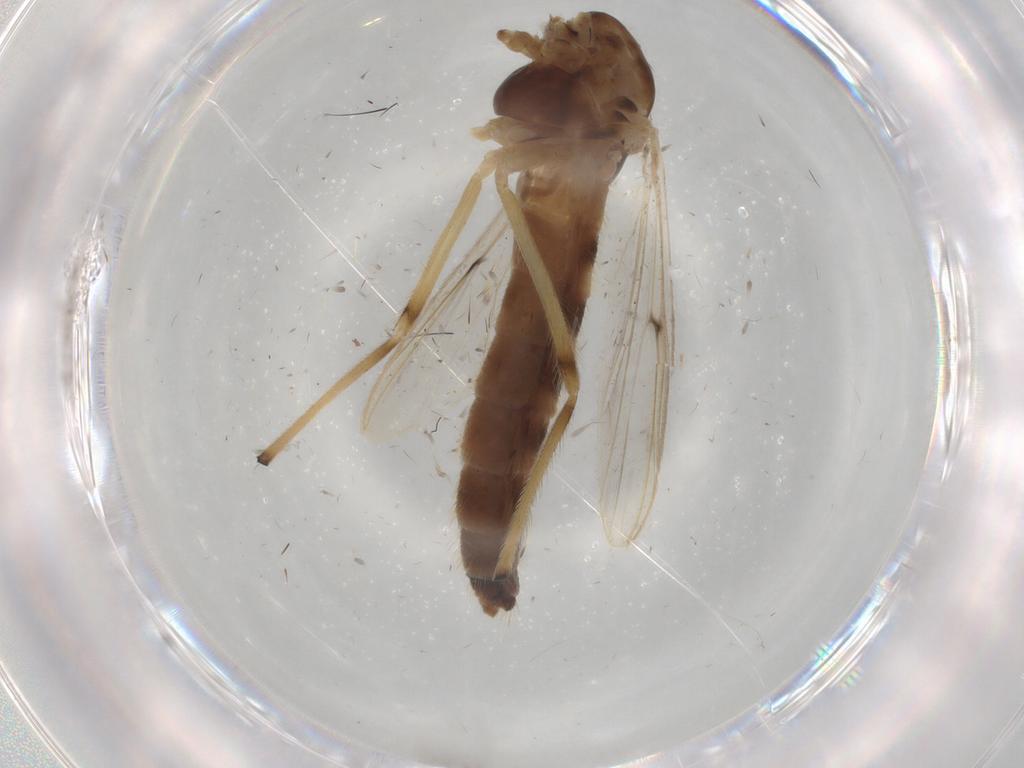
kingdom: Animalia
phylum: Arthropoda
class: Insecta
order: Diptera
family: Chironomidae
